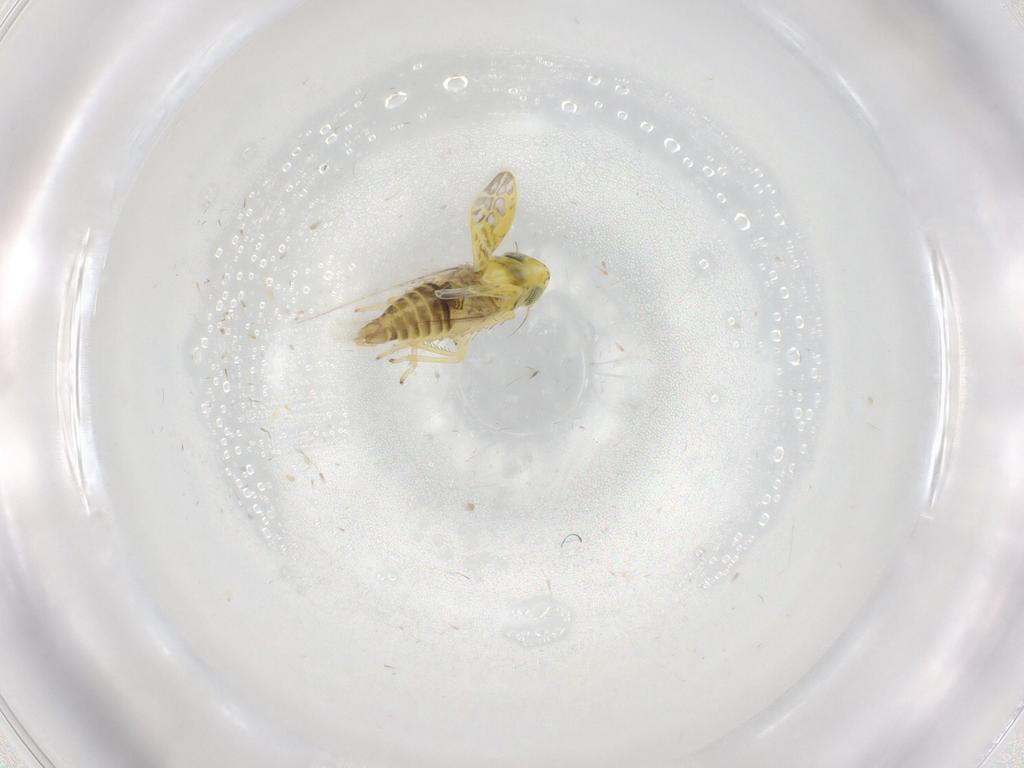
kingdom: Animalia
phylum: Arthropoda
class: Insecta
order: Hemiptera
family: Cicadellidae
